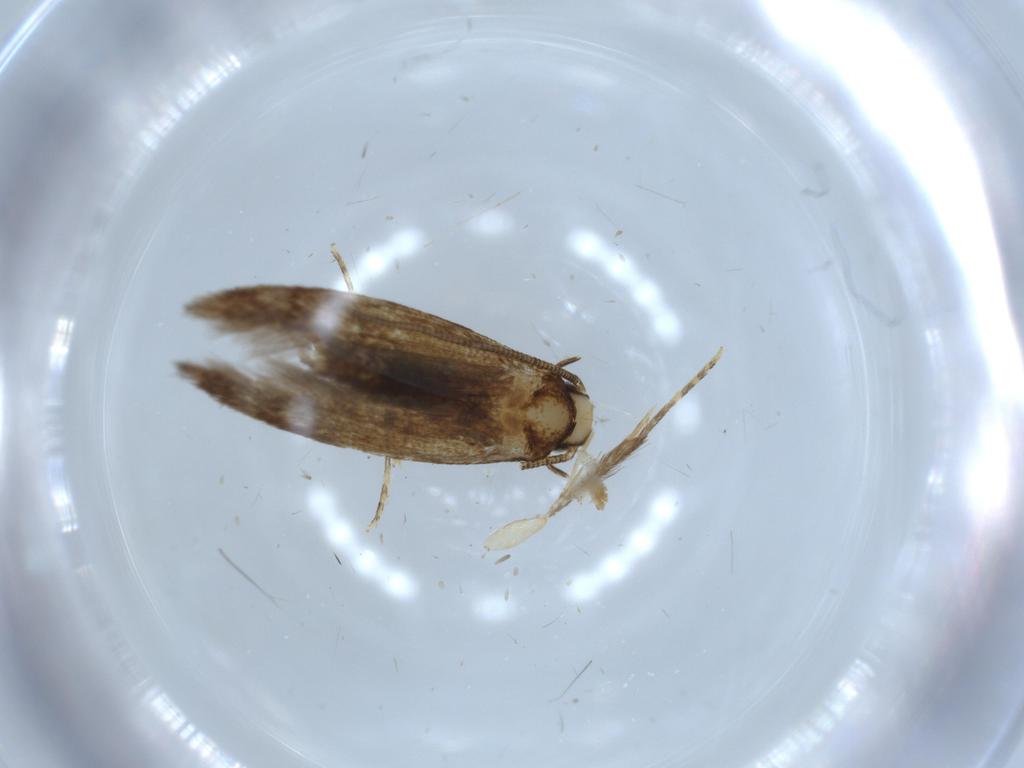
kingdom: Animalia
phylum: Arthropoda
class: Insecta
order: Lepidoptera
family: Tineidae
